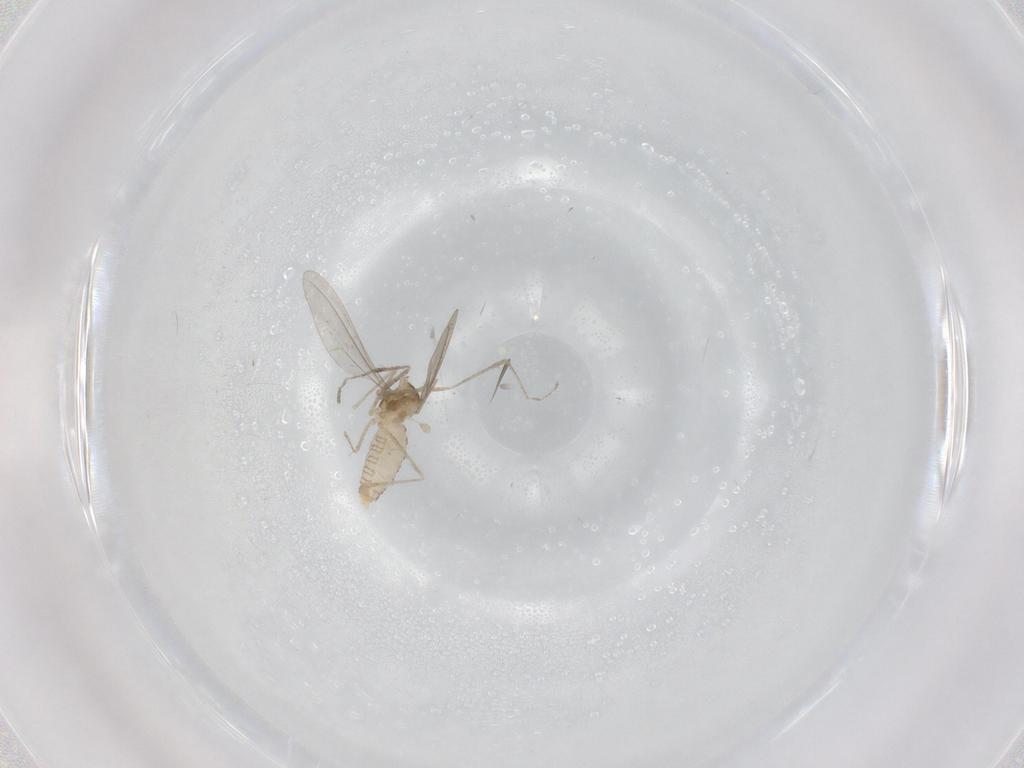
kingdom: Animalia
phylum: Arthropoda
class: Insecta
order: Diptera
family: Cecidomyiidae
